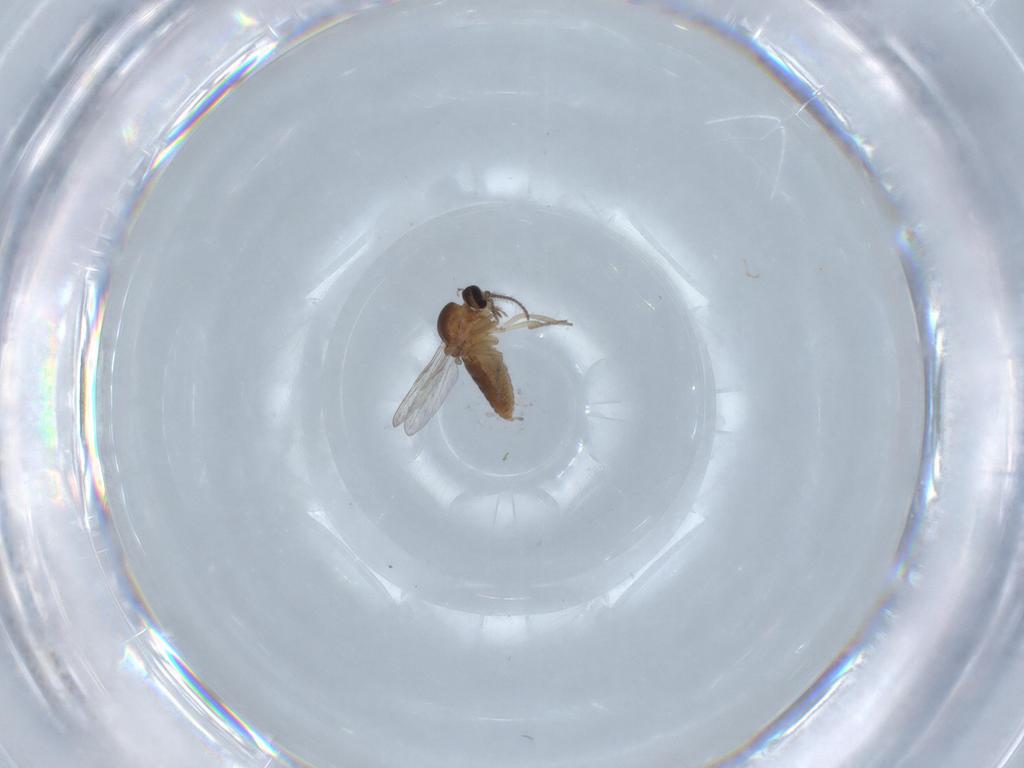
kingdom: Animalia
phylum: Arthropoda
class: Insecta
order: Diptera
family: Ceratopogonidae
